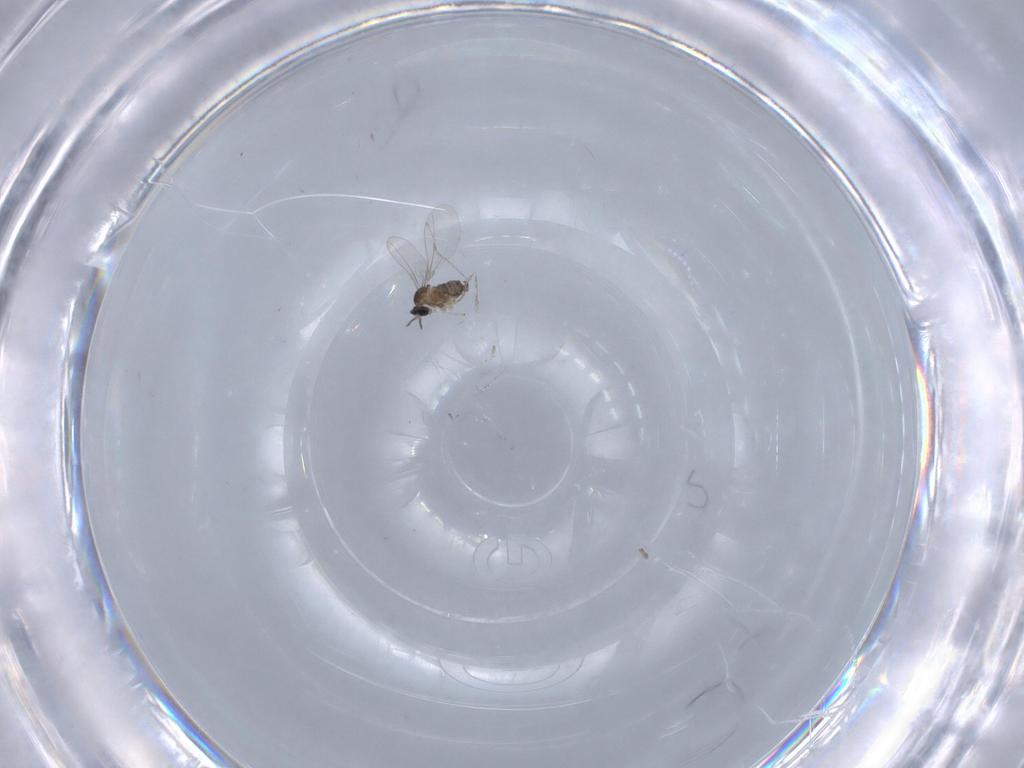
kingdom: Animalia
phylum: Arthropoda
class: Insecta
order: Diptera
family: Cecidomyiidae
